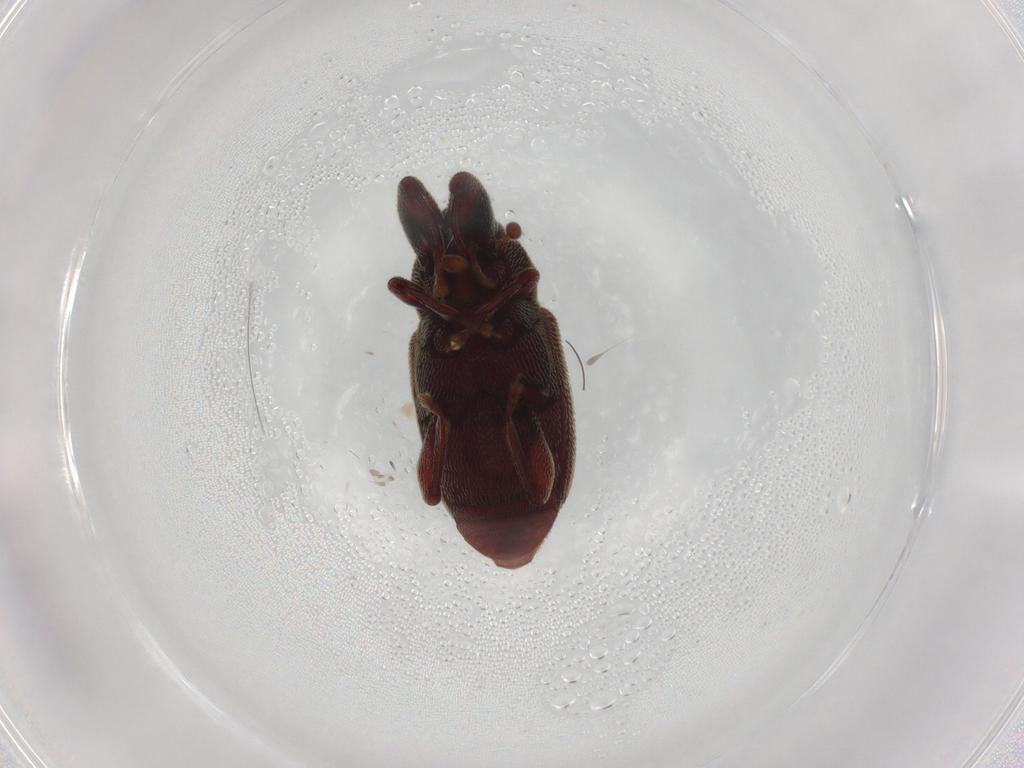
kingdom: Animalia
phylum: Arthropoda
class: Insecta
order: Coleoptera
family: Curculionidae
